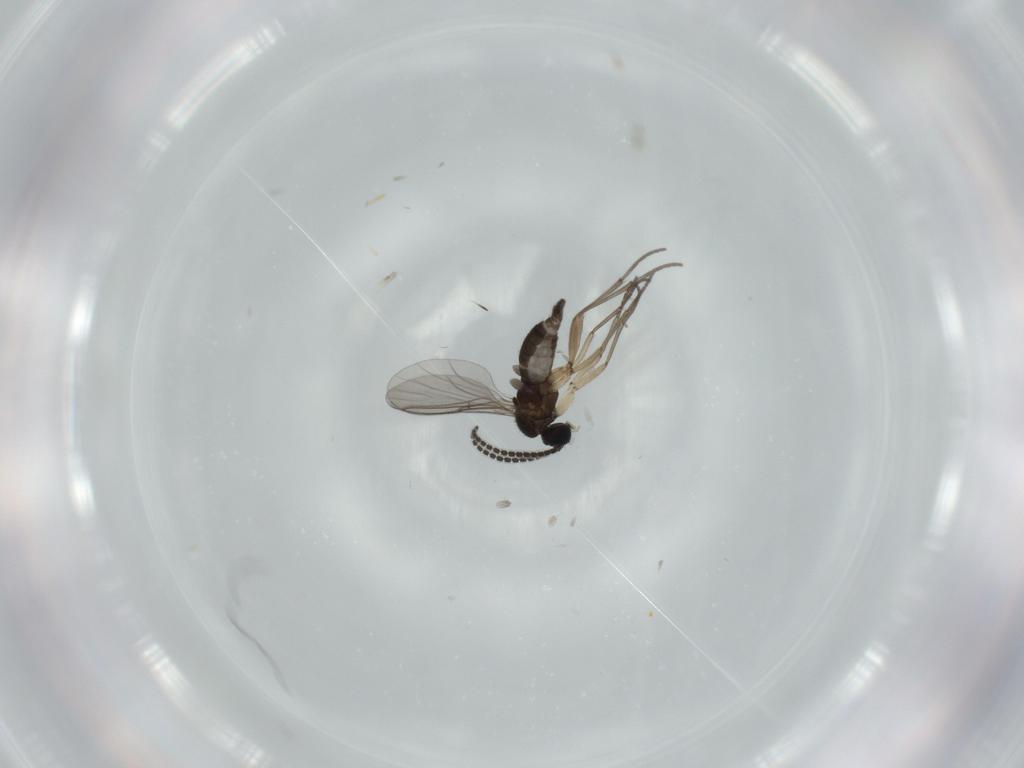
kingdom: Animalia
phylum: Arthropoda
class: Insecta
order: Diptera
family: Sciaridae
